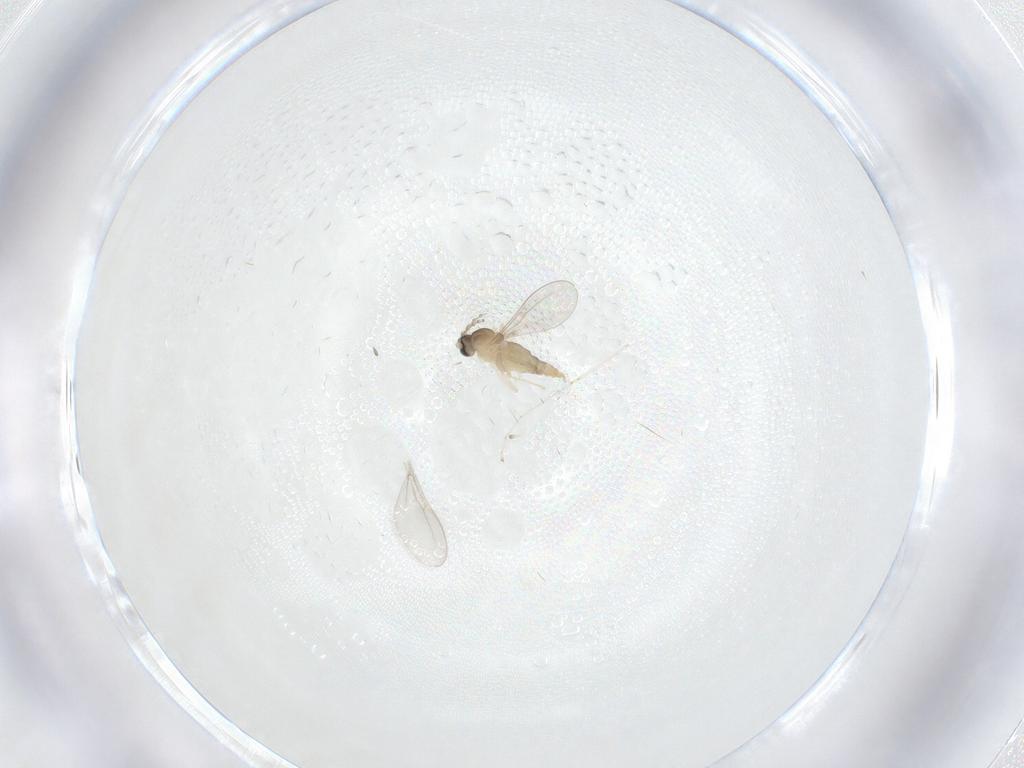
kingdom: Animalia
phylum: Arthropoda
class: Insecta
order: Diptera
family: Cecidomyiidae
